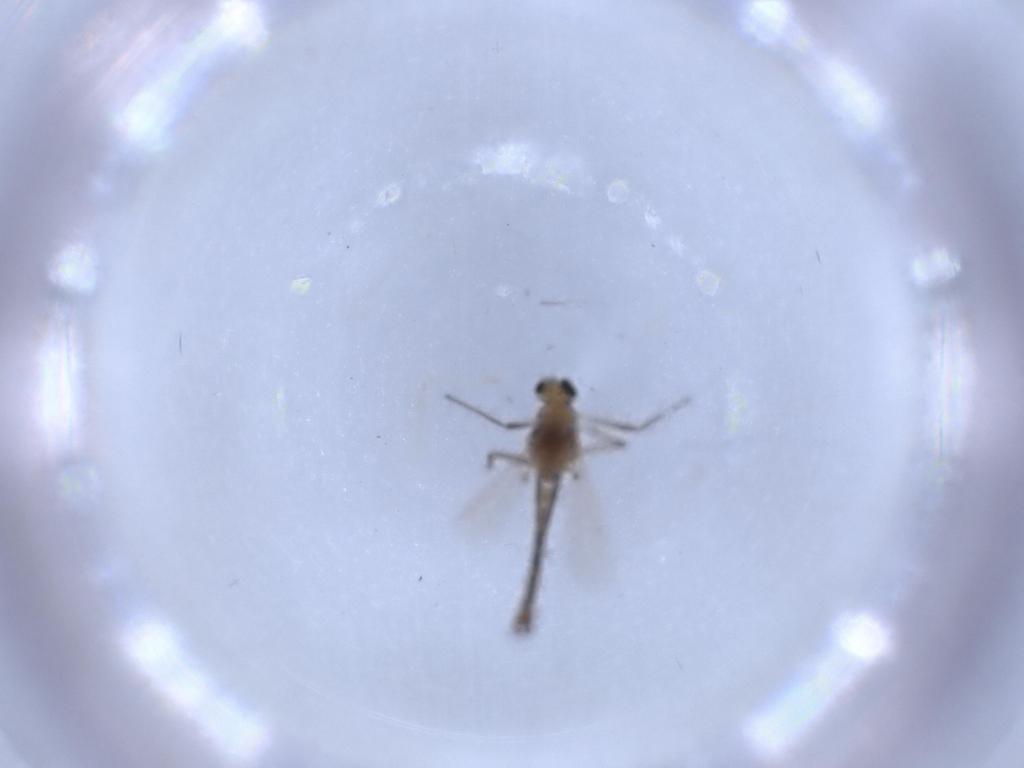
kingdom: Animalia
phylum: Arthropoda
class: Insecta
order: Diptera
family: Chironomidae
